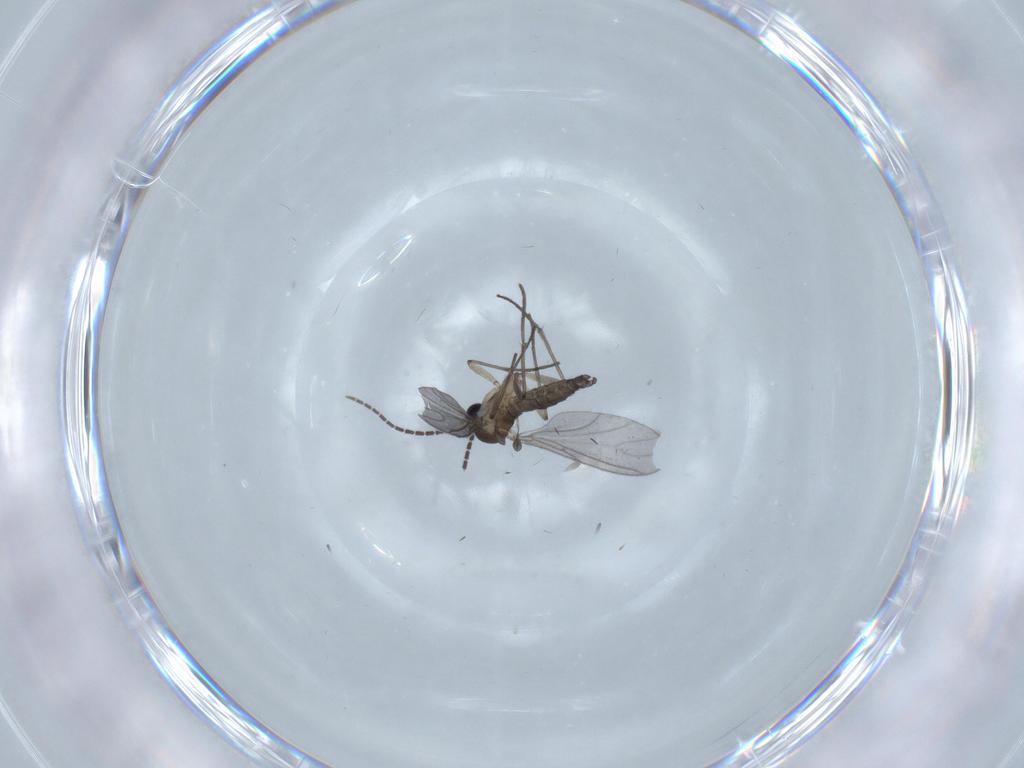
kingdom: Animalia
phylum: Arthropoda
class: Insecta
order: Diptera
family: Sciaridae
